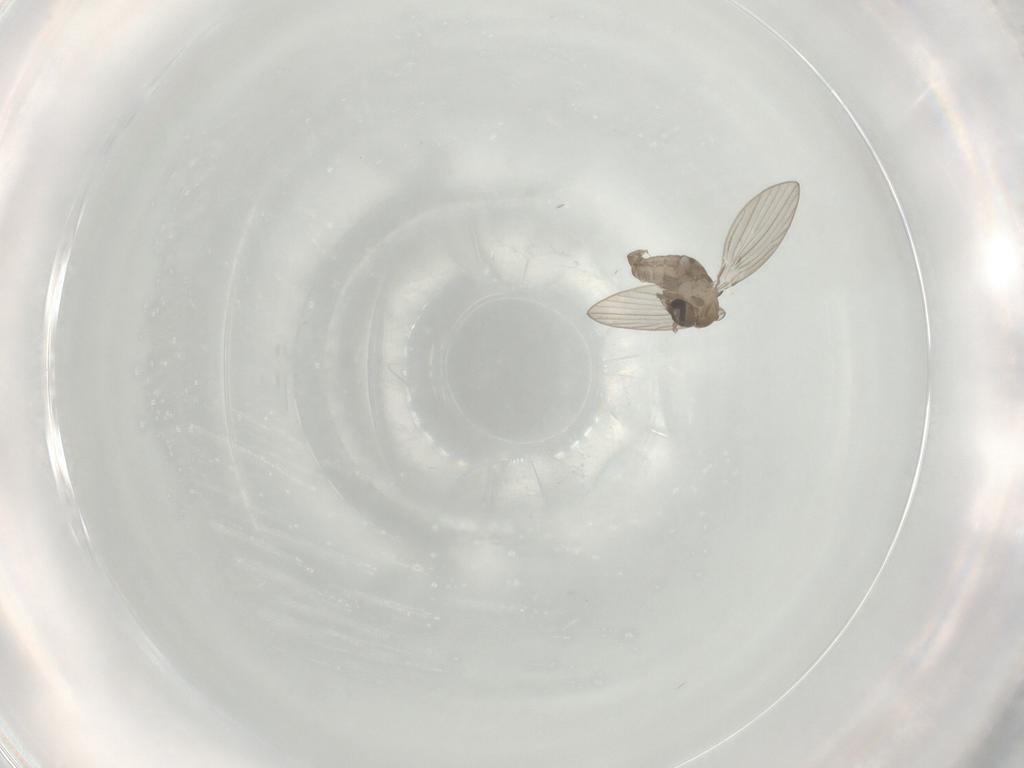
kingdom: Animalia
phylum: Arthropoda
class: Insecta
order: Diptera
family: Psychodidae
